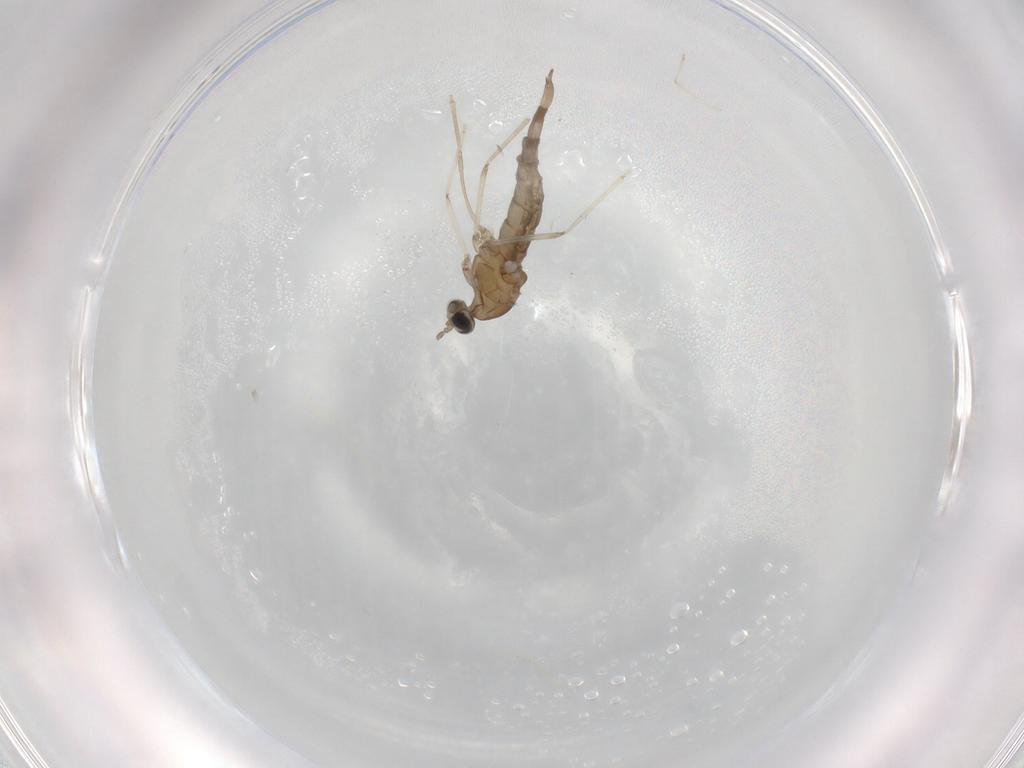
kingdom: Animalia
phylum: Arthropoda
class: Insecta
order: Diptera
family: Cecidomyiidae
